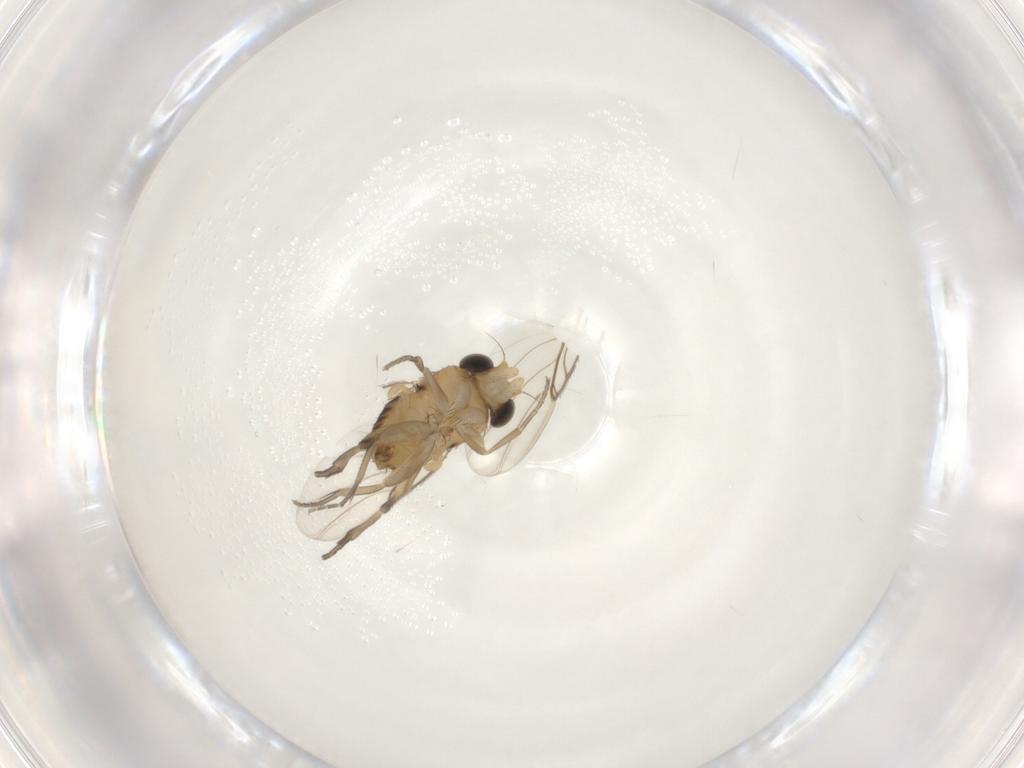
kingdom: Animalia
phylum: Arthropoda
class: Insecta
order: Diptera
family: Phoridae
